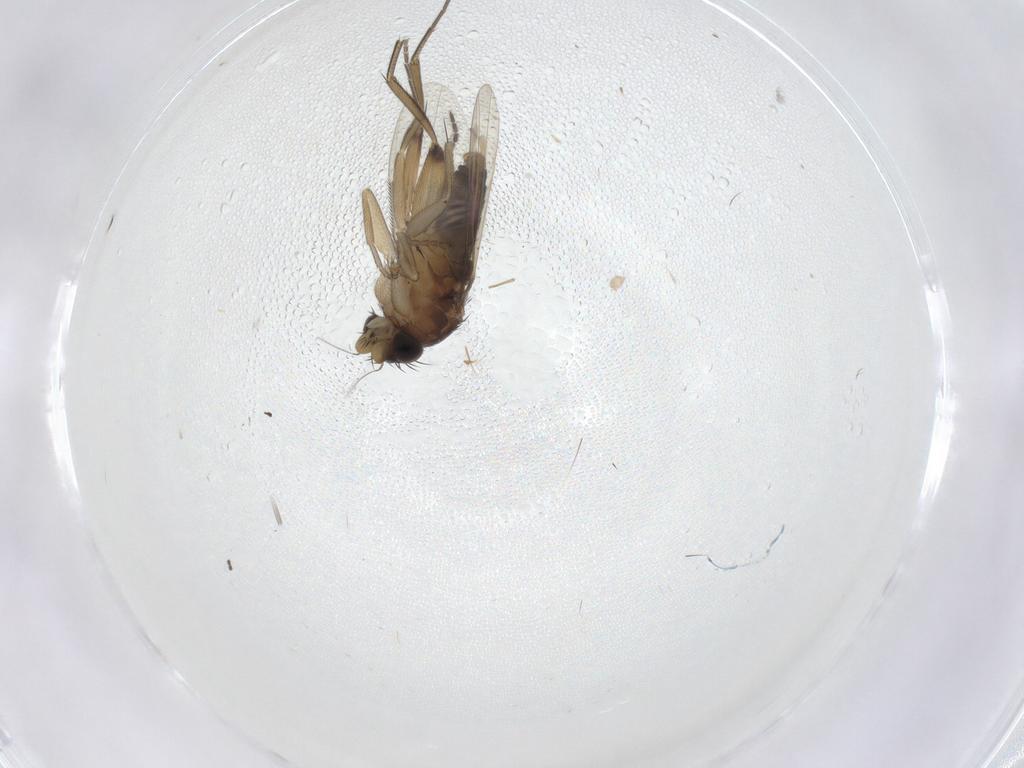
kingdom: Animalia
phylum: Arthropoda
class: Insecta
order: Diptera
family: Phoridae
